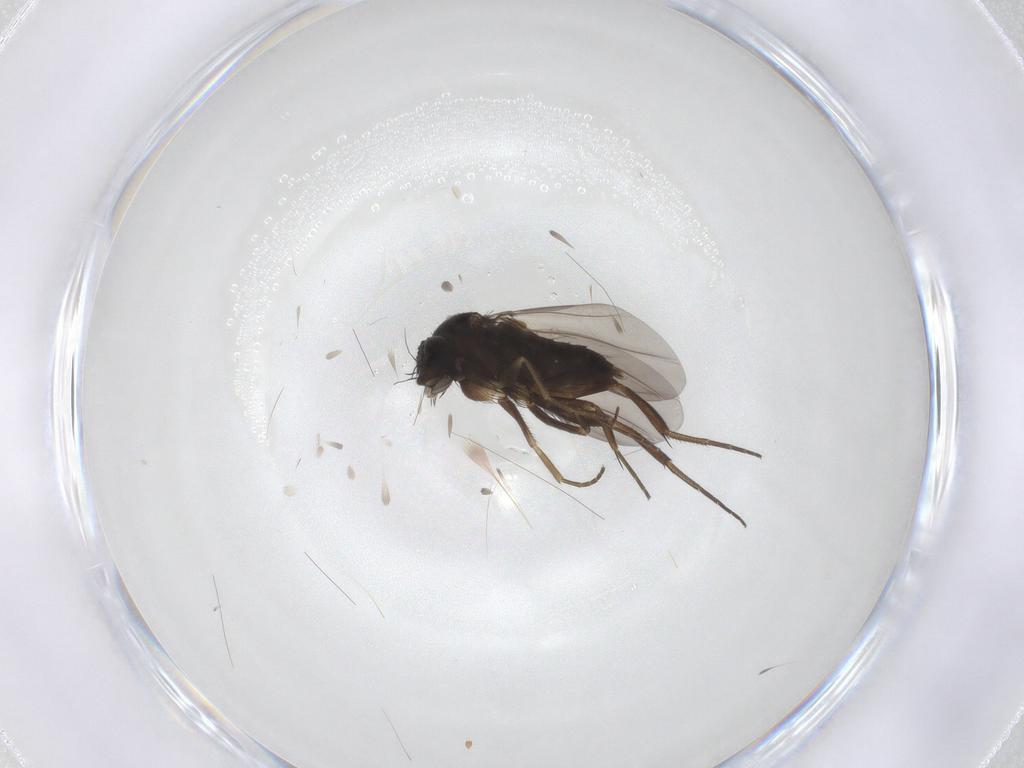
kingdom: Animalia
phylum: Arthropoda
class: Insecta
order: Diptera
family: Phoridae
